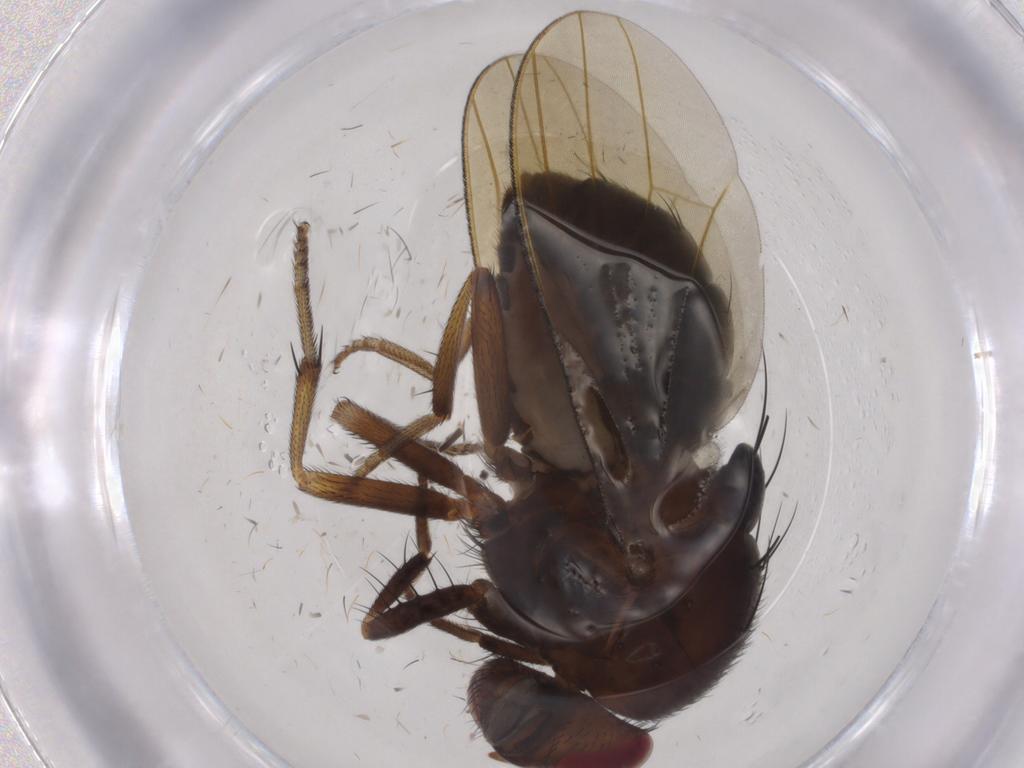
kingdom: Animalia
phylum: Arthropoda
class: Insecta
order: Diptera
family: Lauxaniidae
